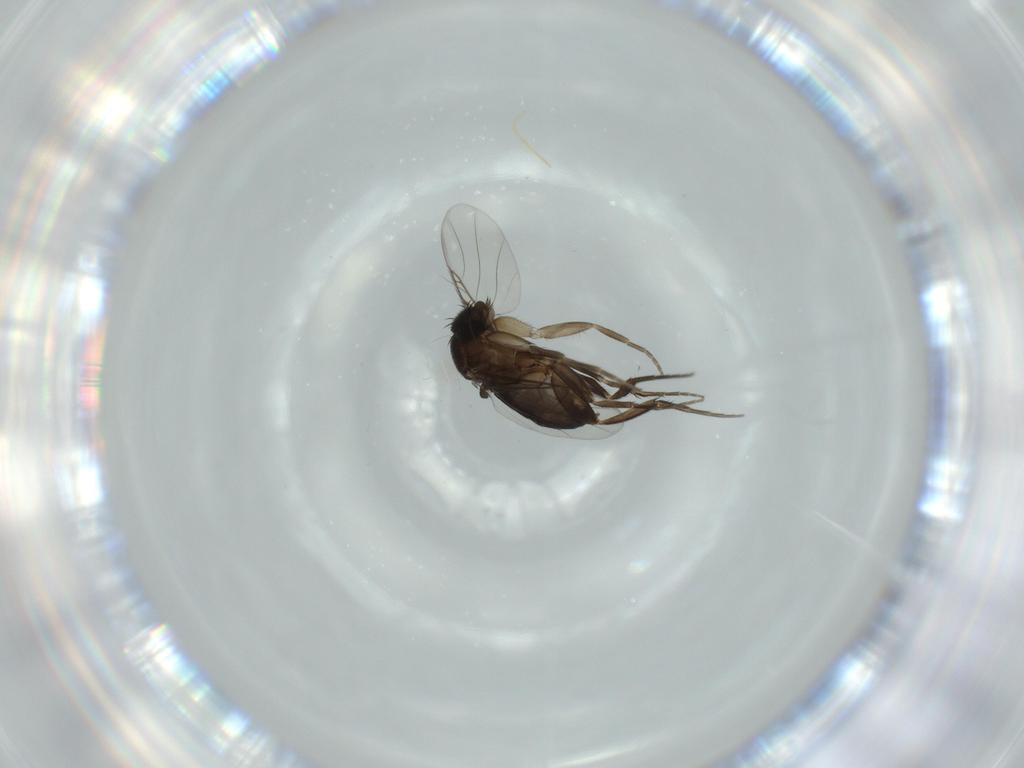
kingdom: Animalia
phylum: Arthropoda
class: Insecta
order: Diptera
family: Phoridae
